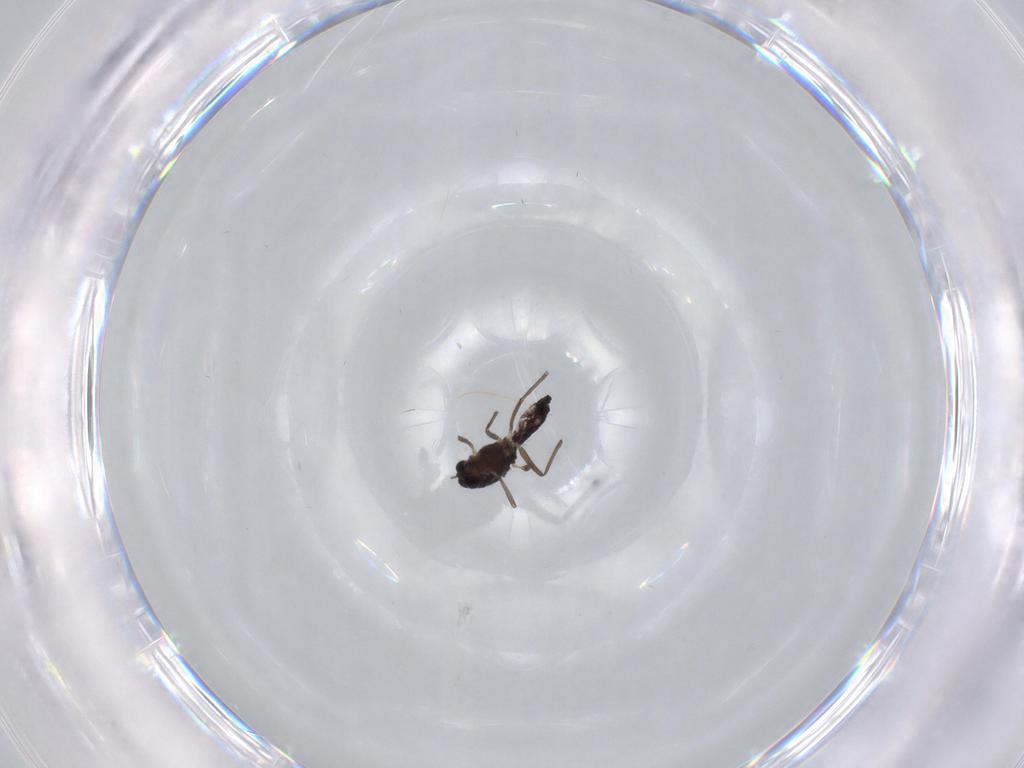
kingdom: Animalia
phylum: Arthropoda
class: Insecta
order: Diptera
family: Chironomidae
